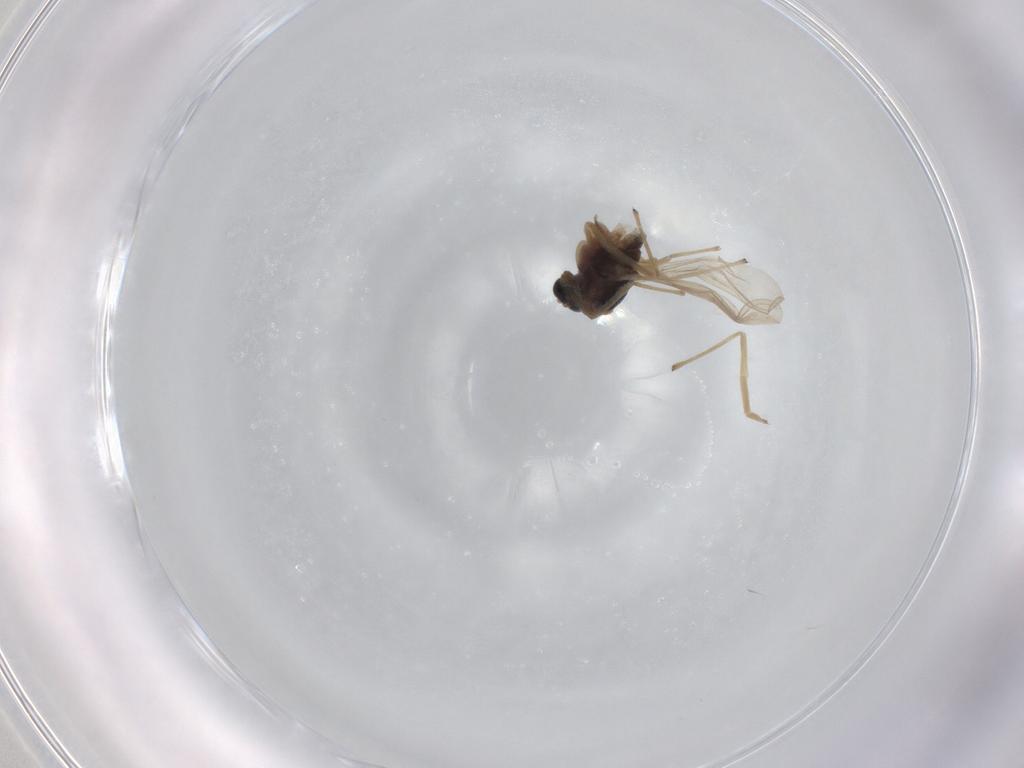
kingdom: Animalia
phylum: Arthropoda
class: Insecta
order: Diptera
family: Cecidomyiidae
